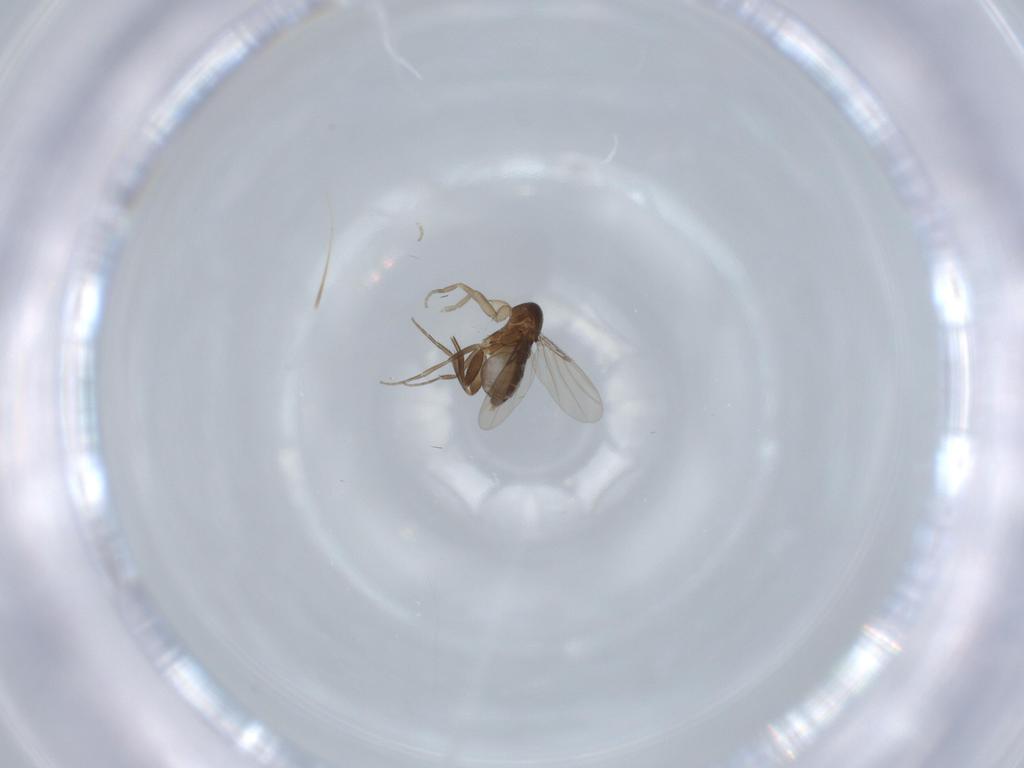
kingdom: Animalia
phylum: Arthropoda
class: Insecta
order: Diptera
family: Phoridae
